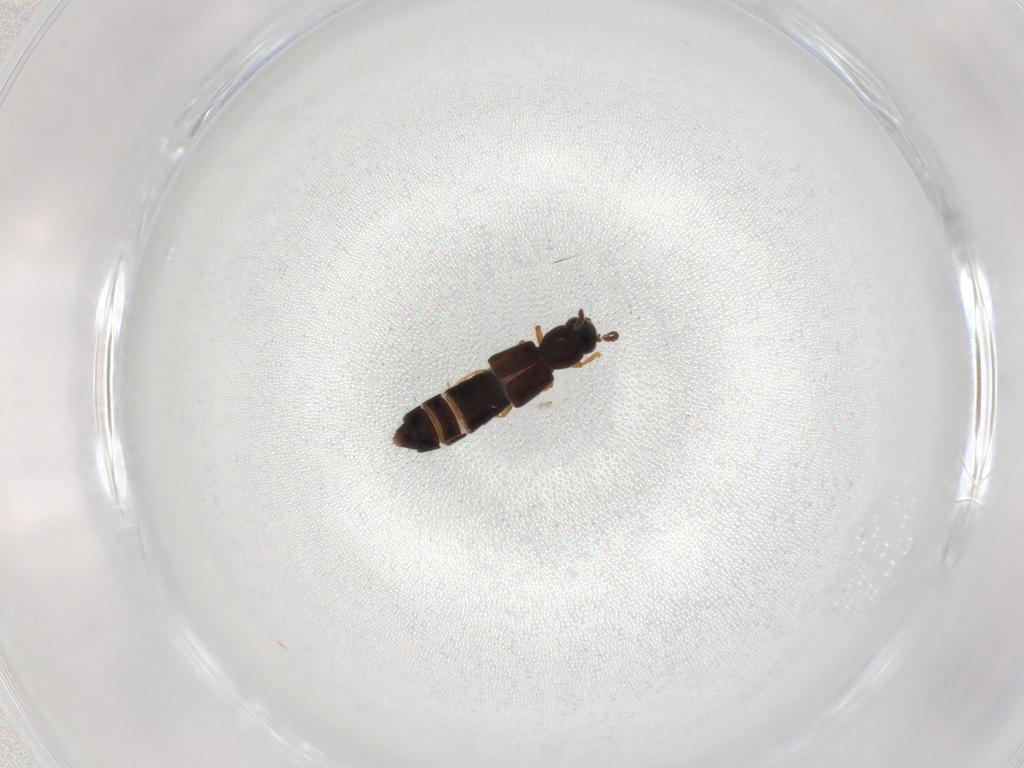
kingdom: Animalia
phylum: Arthropoda
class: Insecta
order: Coleoptera
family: Staphylinidae
